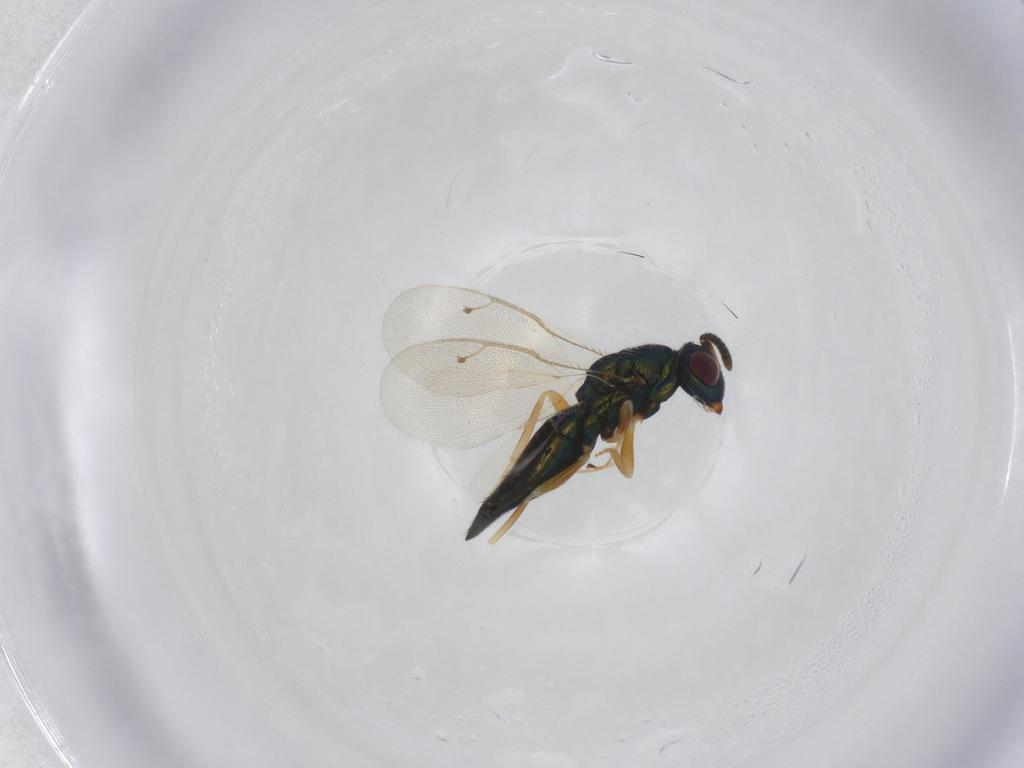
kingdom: Animalia
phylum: Arthropoda
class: Insecta
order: Hymenoptera
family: Pteromalidae
